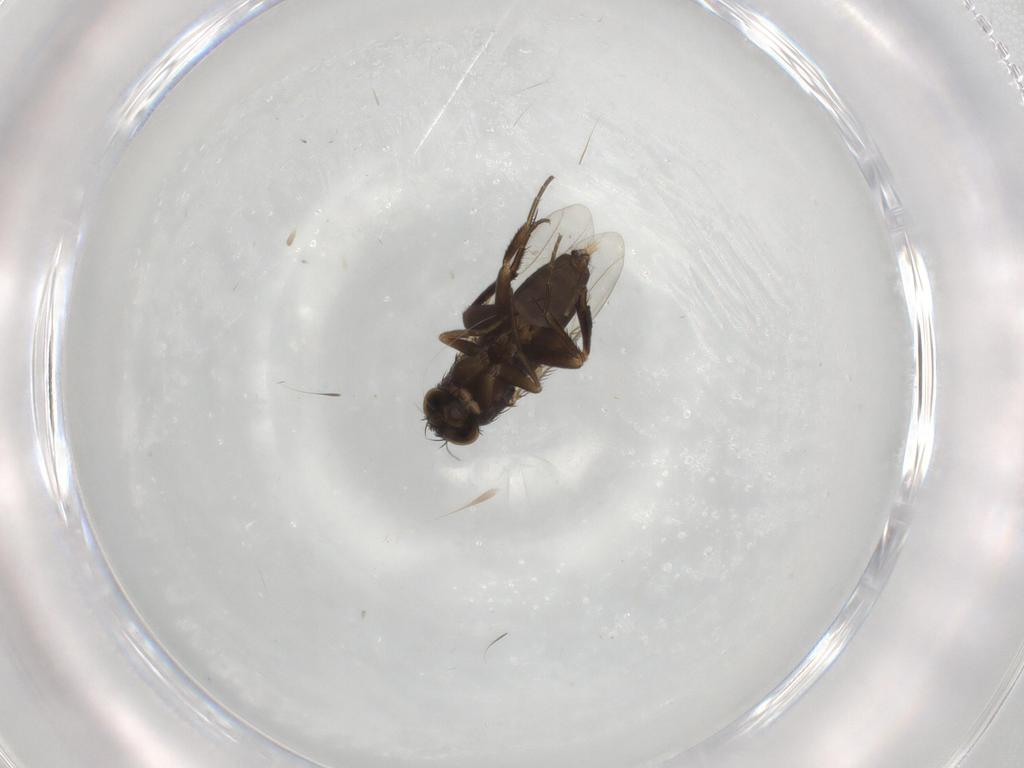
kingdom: Animalia
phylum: Arthropoda
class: Insecta
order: Diptera
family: Phoridae
